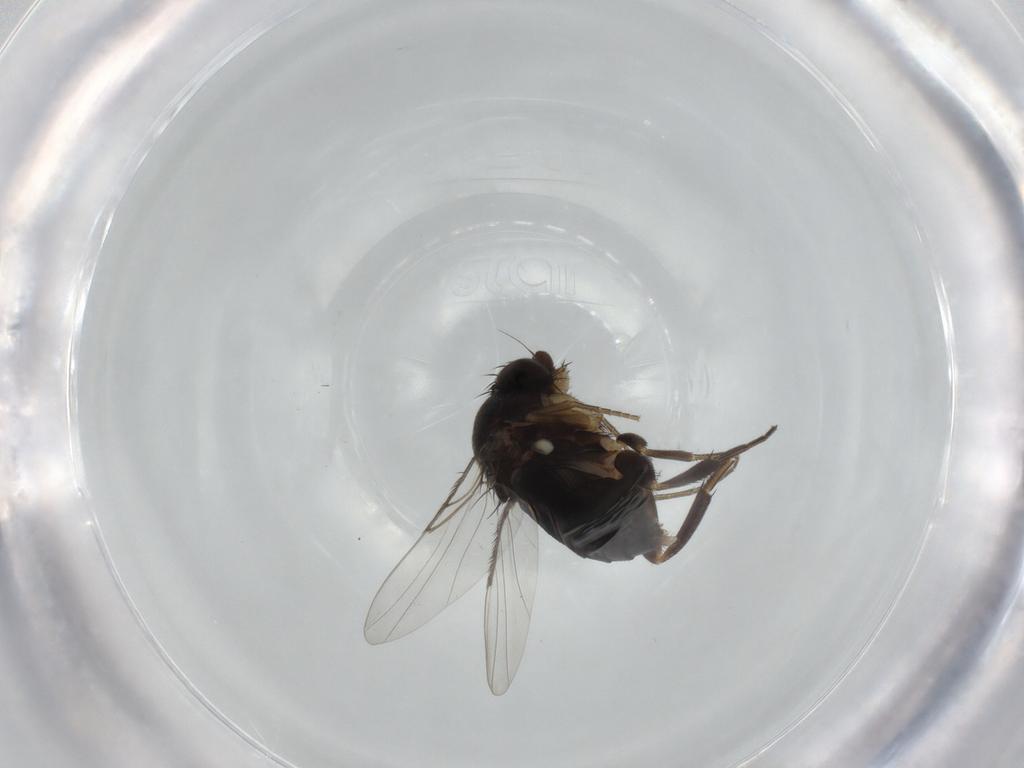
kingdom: Animalia
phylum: Arthropoda
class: Insecta
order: Diptera
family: Phoridae
